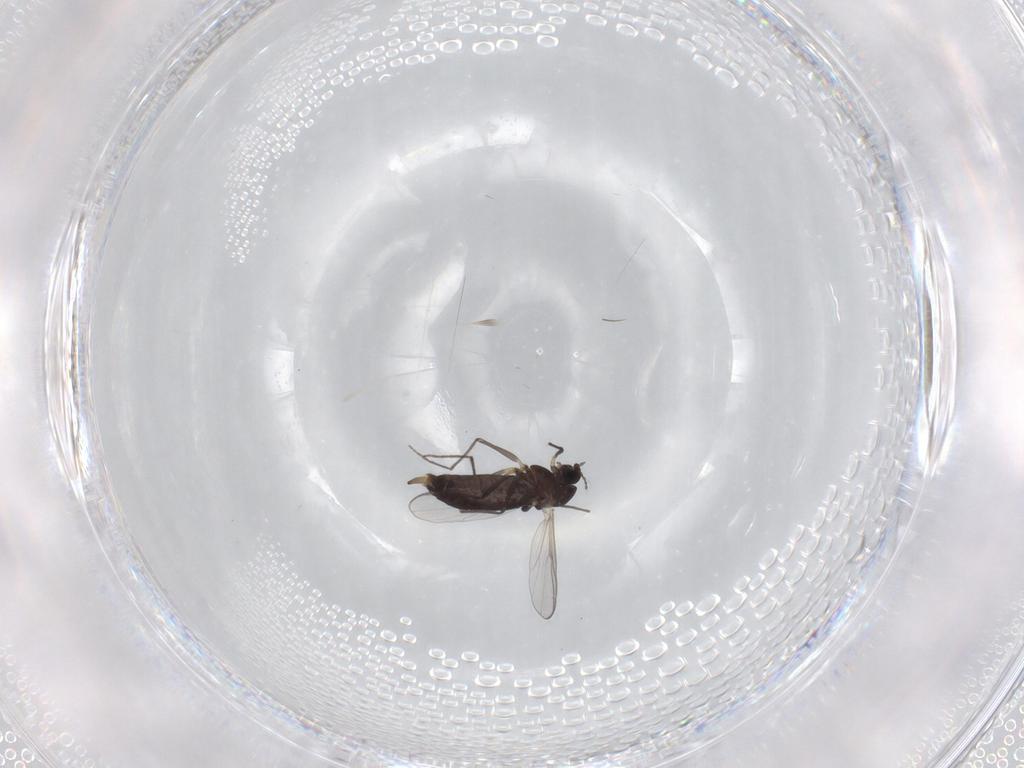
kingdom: Animalia
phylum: Arthropoda
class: Insecta
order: Diptera
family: Chironomidae
